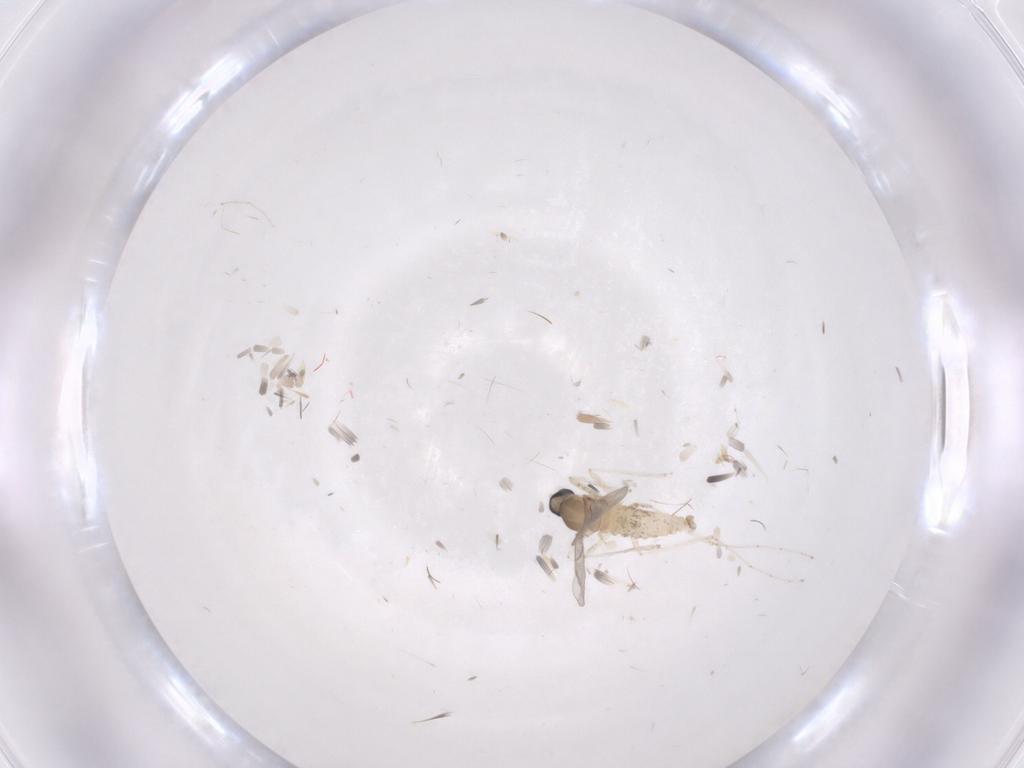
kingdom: Animalia
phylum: Arthropoda
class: Insecta
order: Diptera
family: Cecidomyiidae
